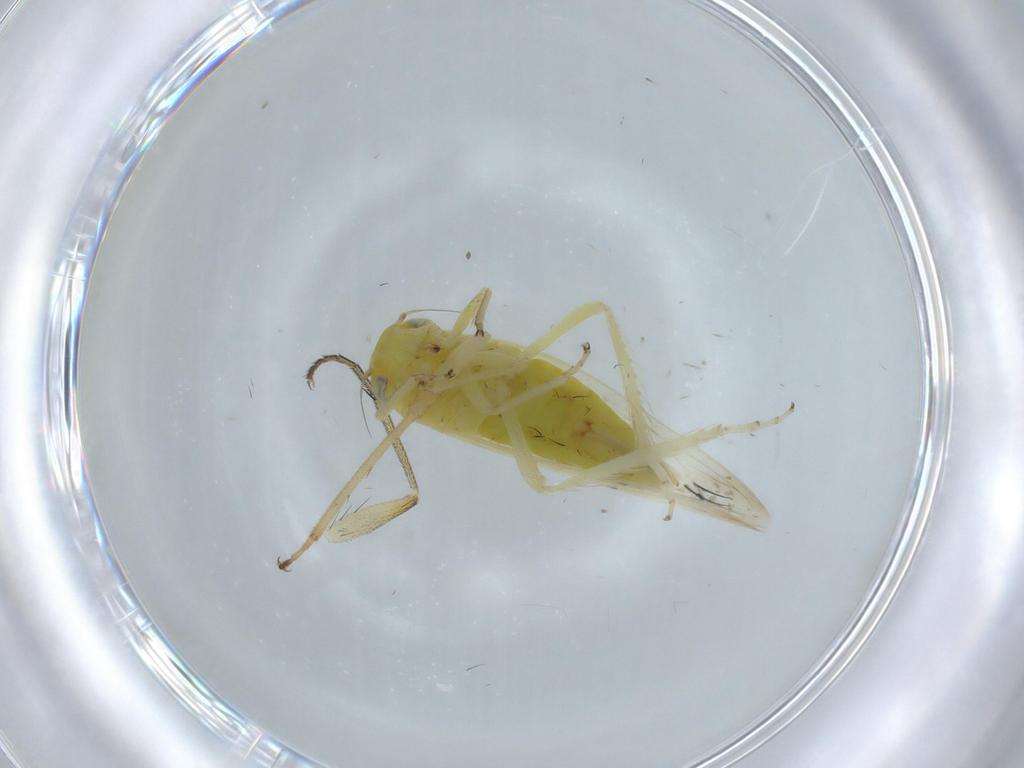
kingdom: Animalia
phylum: Arthropoda
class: Insecta
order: Hemiptera
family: Cicadellidae
